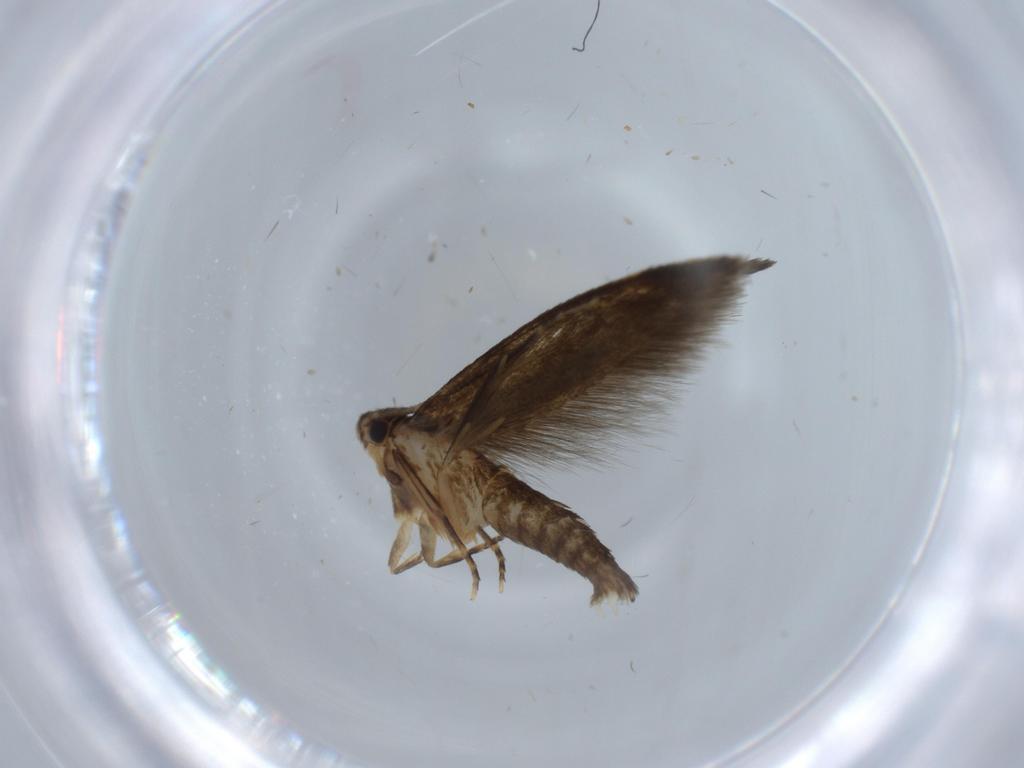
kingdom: Animalia
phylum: Arthropoda
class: Insecta
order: Lepidoptera
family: Tineidae
